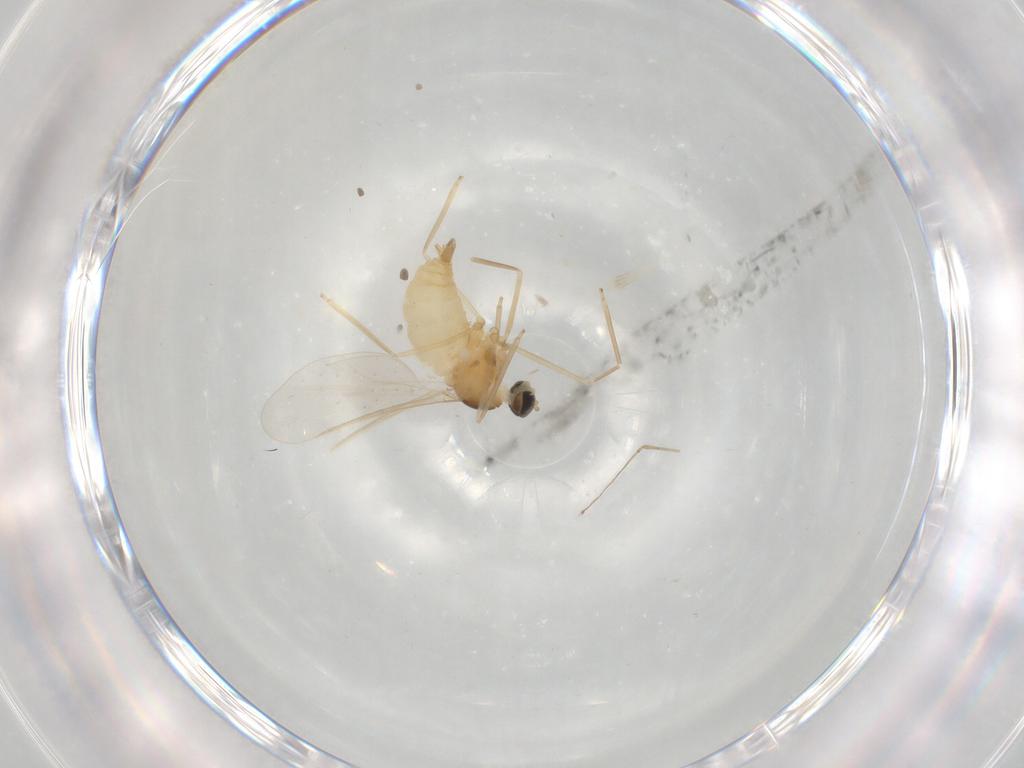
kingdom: Animalia
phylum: Arthropoda
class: Insecta
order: Diptera
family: Cecidomyiidae
